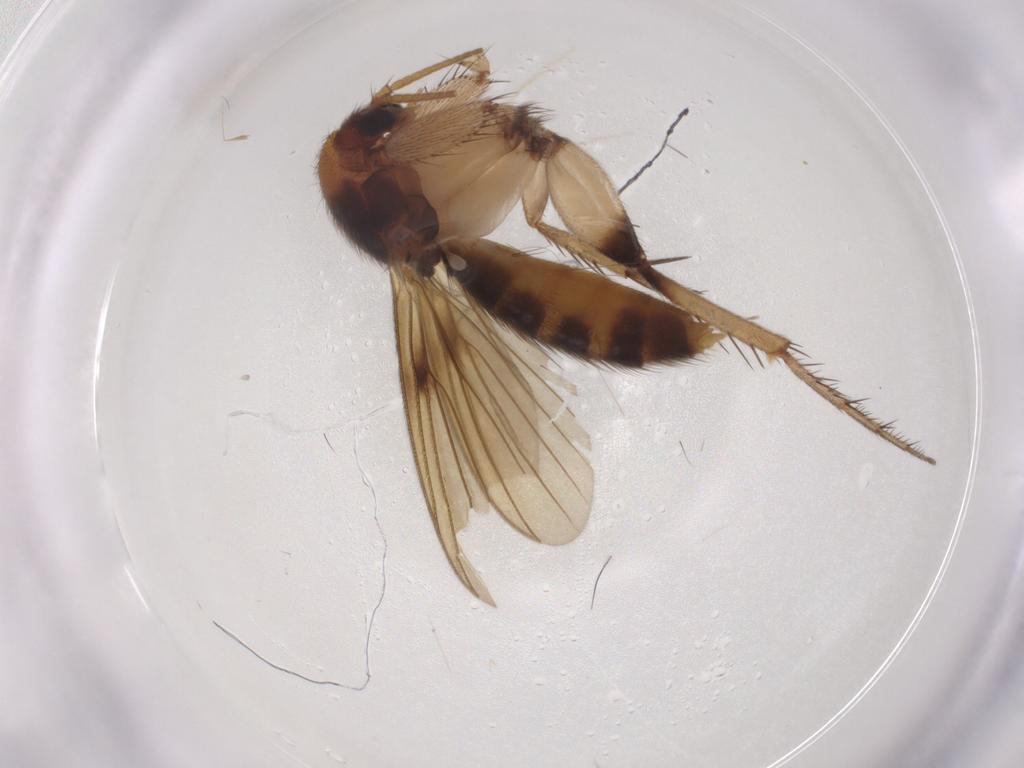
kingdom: Animalia
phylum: Arthropoda
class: Insecta
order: Diptera
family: Mycetophilidae
